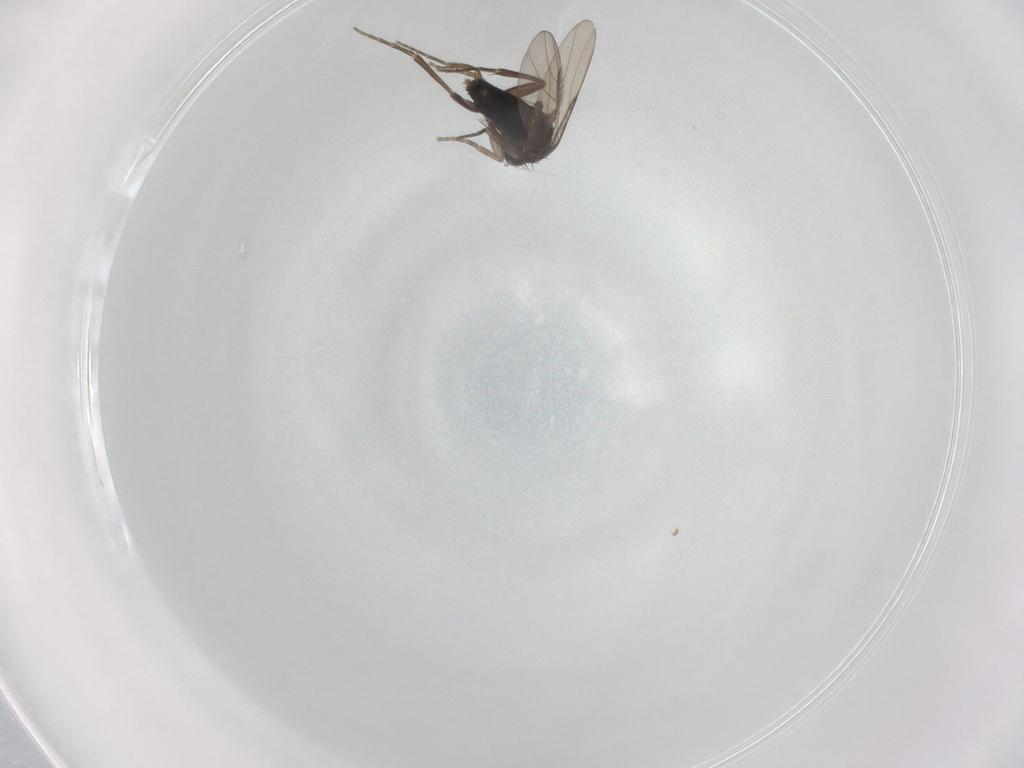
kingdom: Animalia
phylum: Arthropoda
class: Insecta
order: Diptera
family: Phoridae
